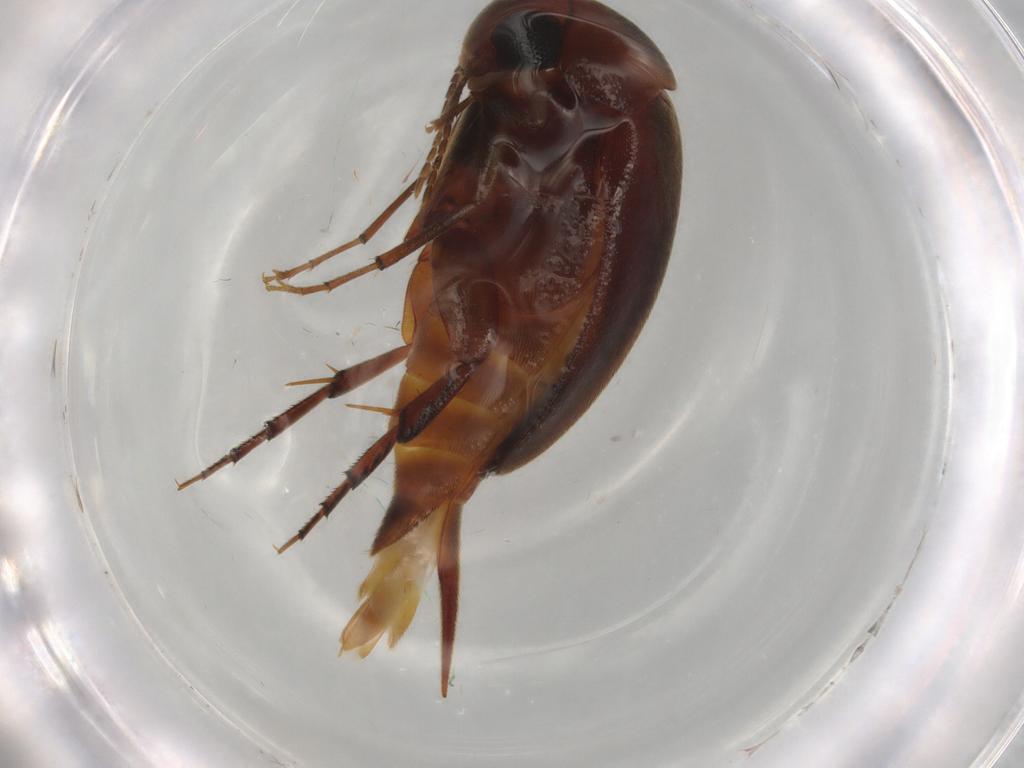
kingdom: Animalia
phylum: Arthropoda
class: Insecta
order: Coleoptera
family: Mordellidae
